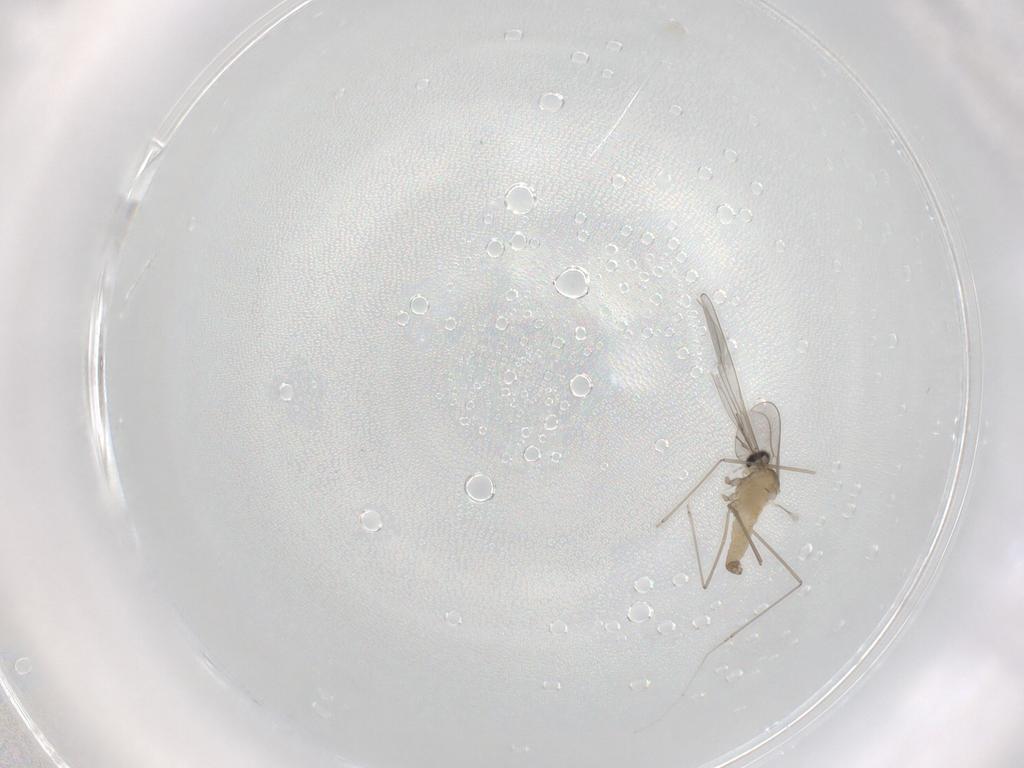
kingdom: Animalia
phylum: Arthropoda
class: Insecta
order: Diptera
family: Cecidomyiidae
